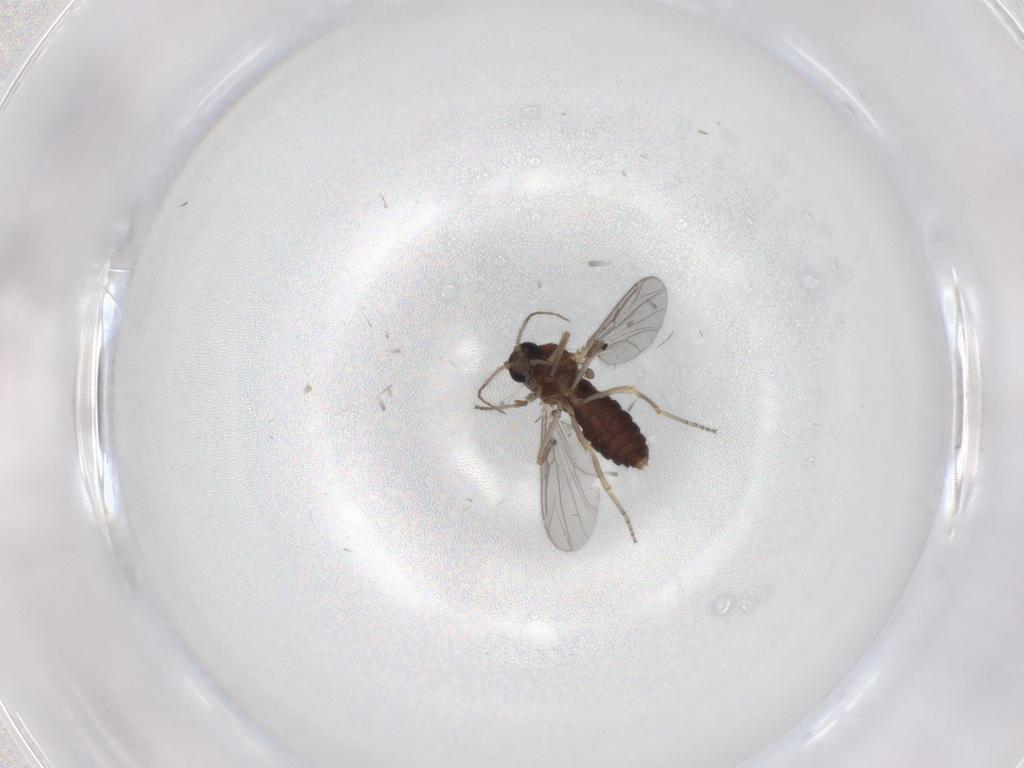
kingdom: Animalia
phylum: Arthropoda
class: Insecta
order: Diptera
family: Ceratopogonidae
